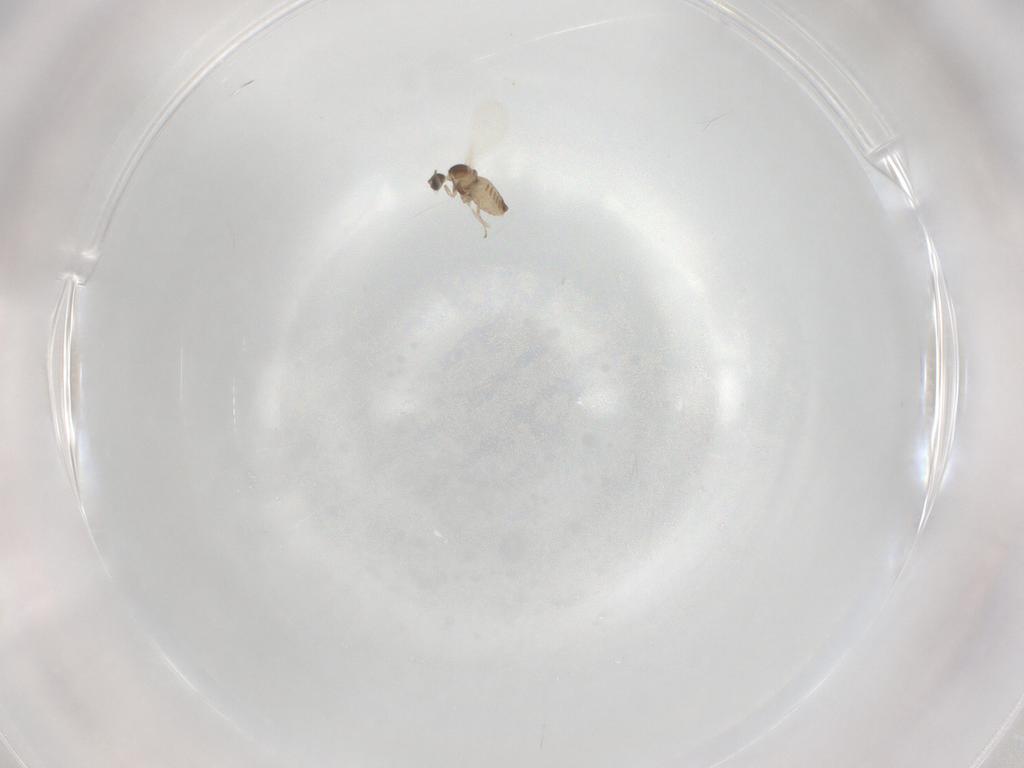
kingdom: Animalia
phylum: Arthropoda
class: Insecta
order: Diptera
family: Cecidomyiidae
